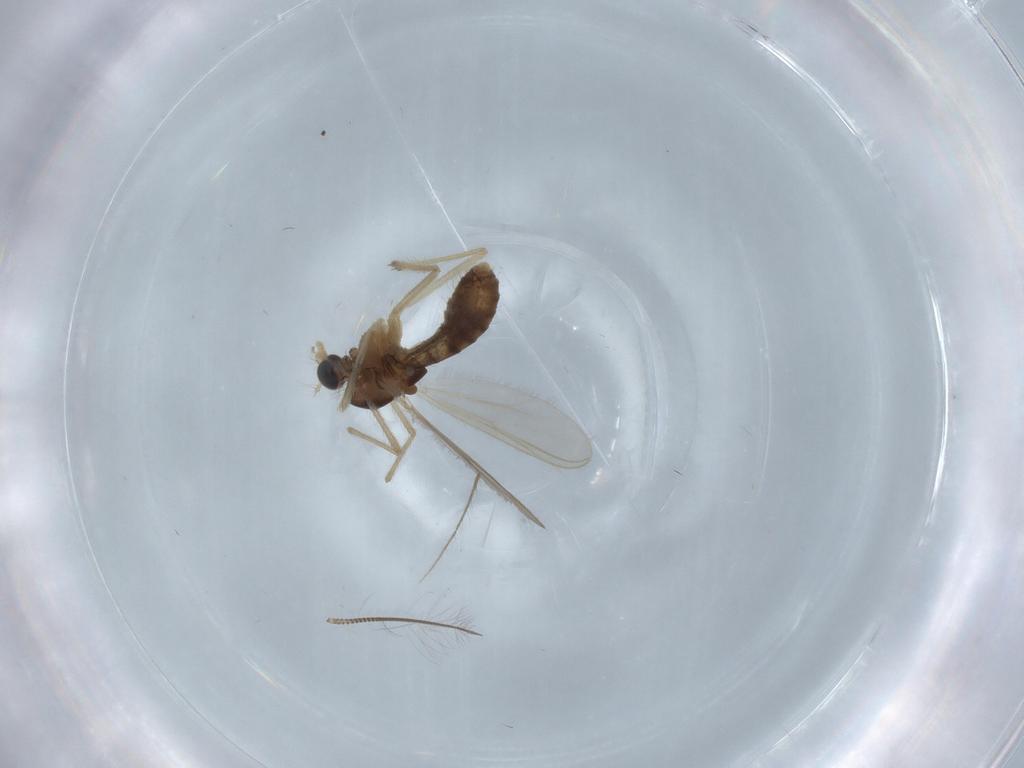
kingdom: Animalia
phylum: Arthropoda
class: Insecta
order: Diptera
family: Chironomidae
